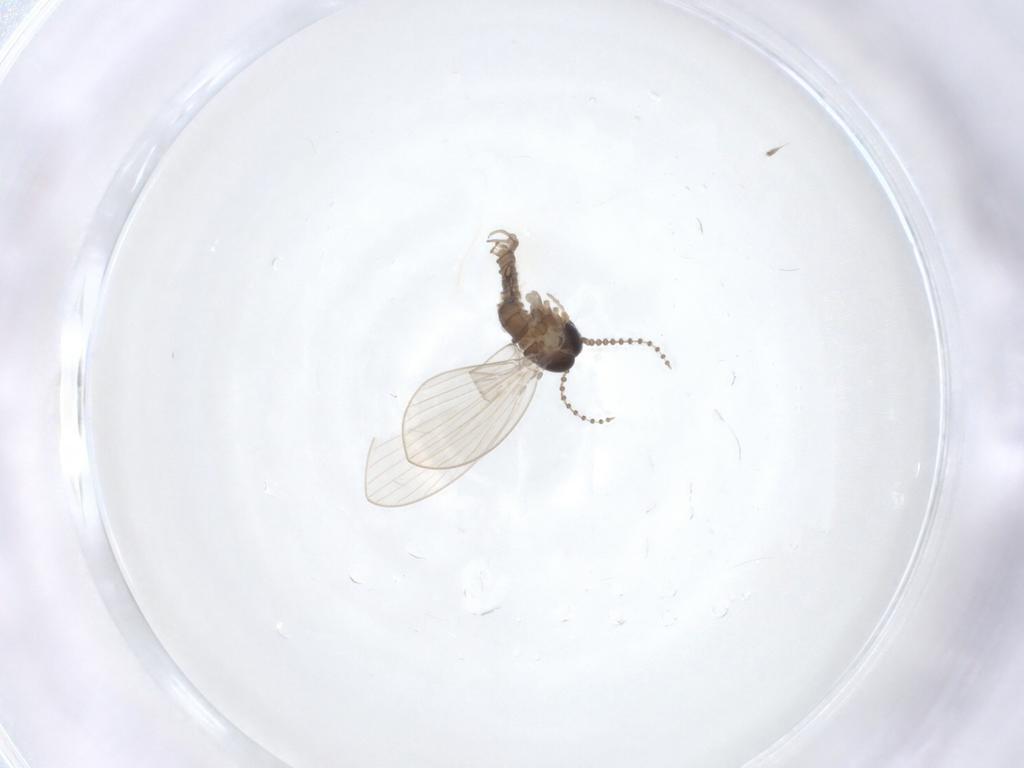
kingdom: Animalia
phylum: Arthropoda
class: Insecta
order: Diptera
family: Psychodidae
